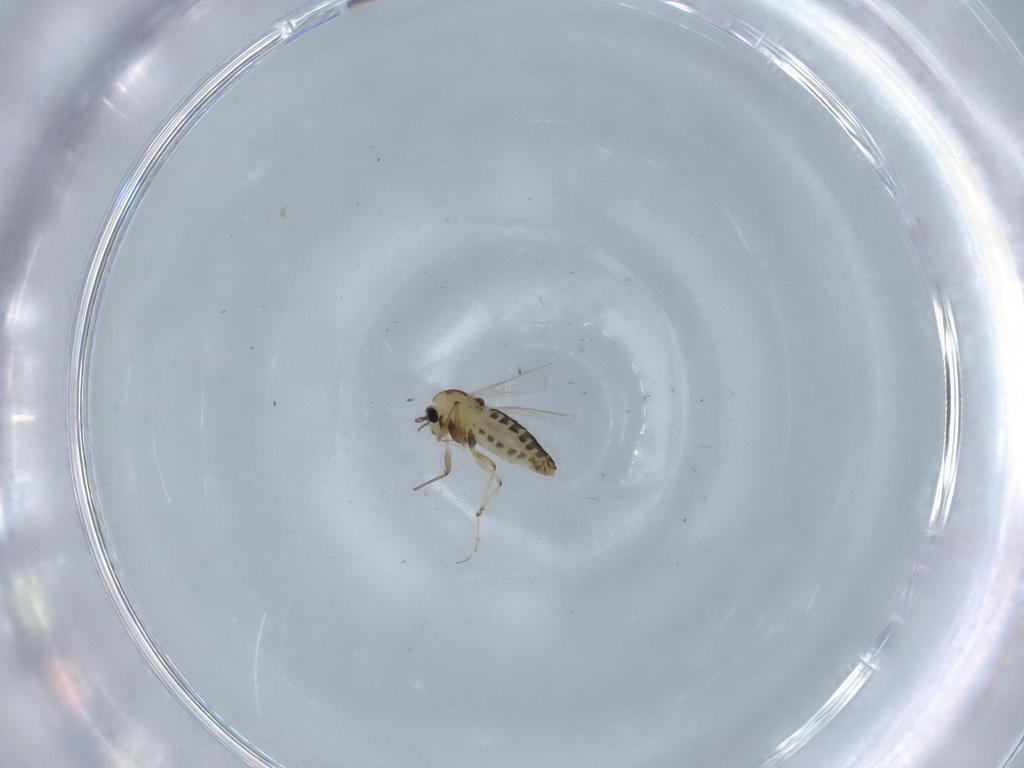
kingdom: Animalia
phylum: Arthropoda
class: Insecta
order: Diptera
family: Chironomidae
